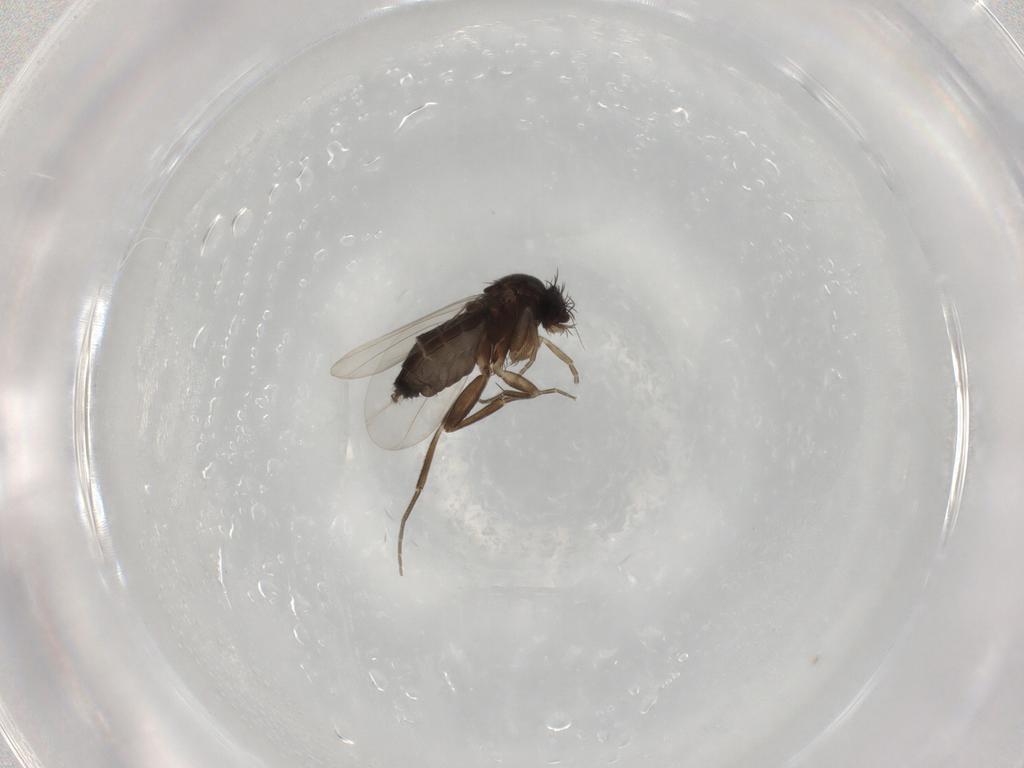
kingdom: Animalia
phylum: Arthropoda
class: Insecta
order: Diptera
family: Phoridae
